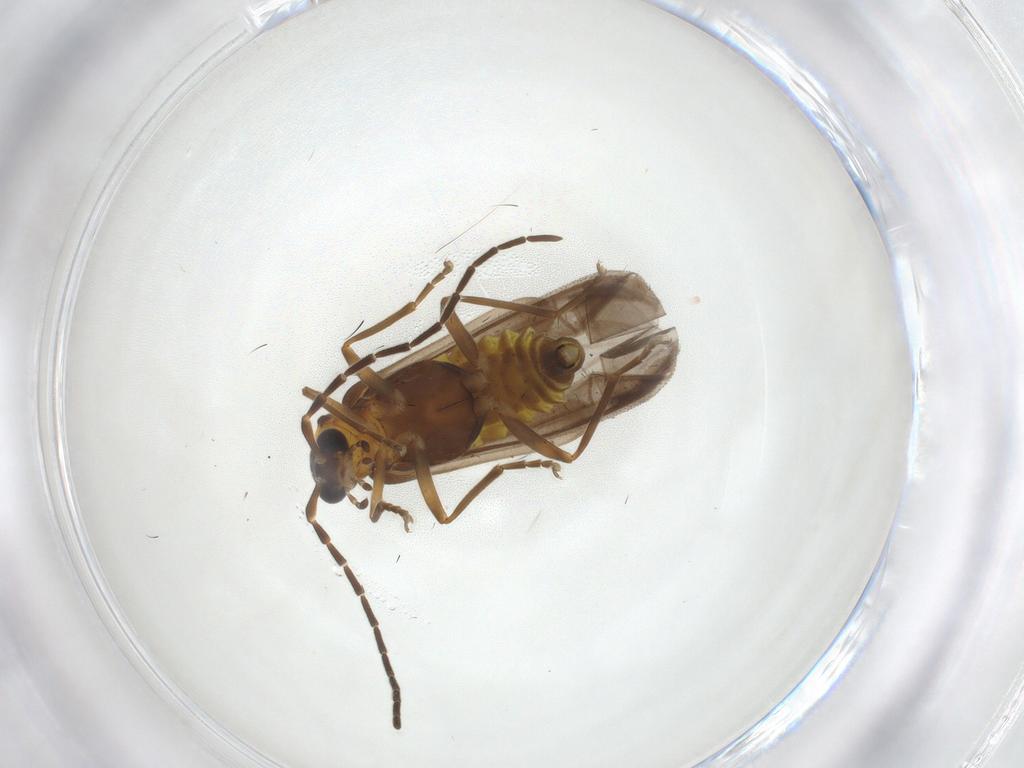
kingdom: Animalia
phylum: Arthropoda
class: Insecta
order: Coleoptera
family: Cantharidae
